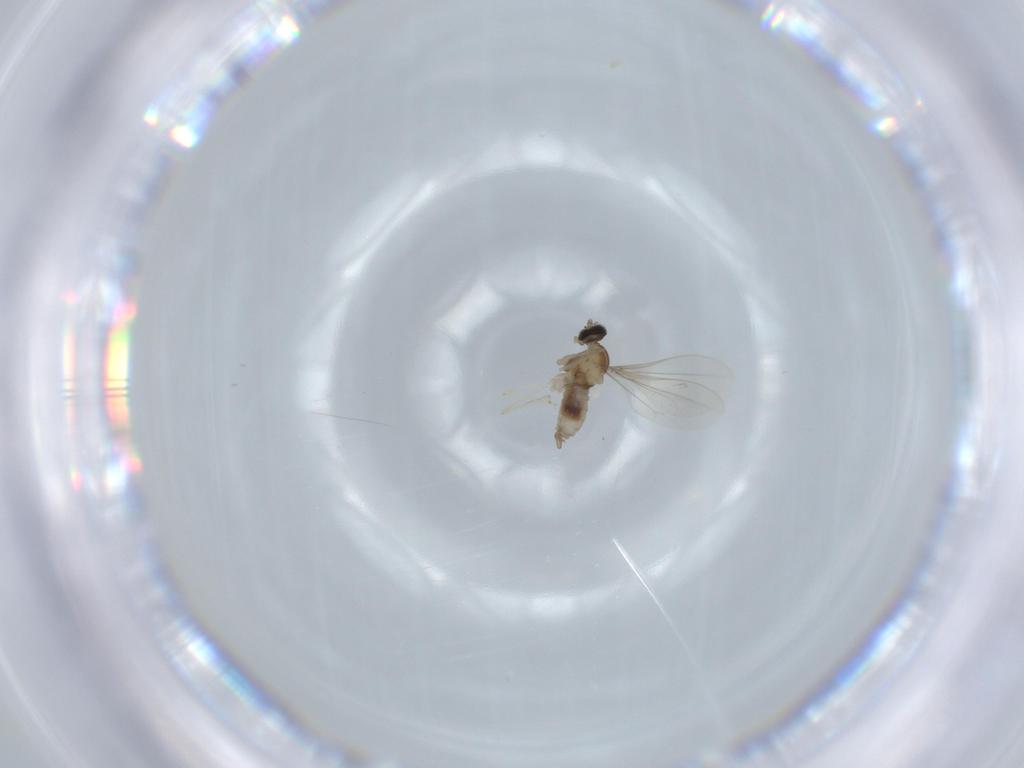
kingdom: Animalia
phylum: Arthropoda
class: Insecta
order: Diptera
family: Cecidomyiidae
